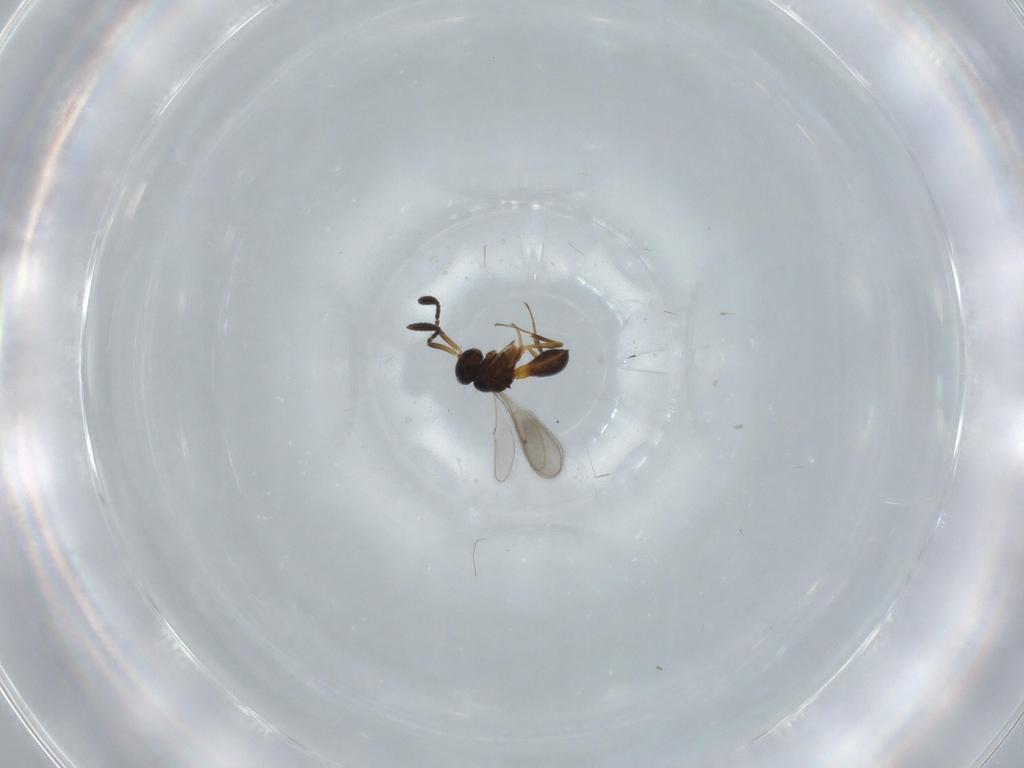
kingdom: Animalia
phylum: Arthropoda
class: Insecta
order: Hymenoptera
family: Scelionidae
